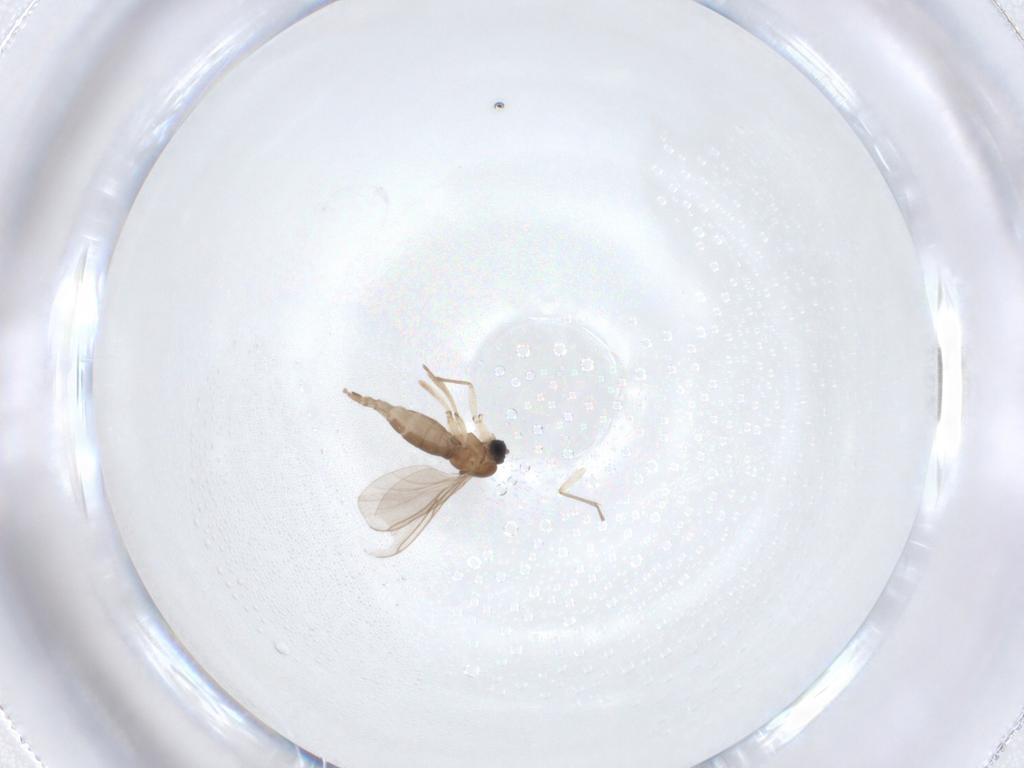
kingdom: Animalia
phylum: Arthropoda
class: Insecta
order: Diptera
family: Sciaridae
